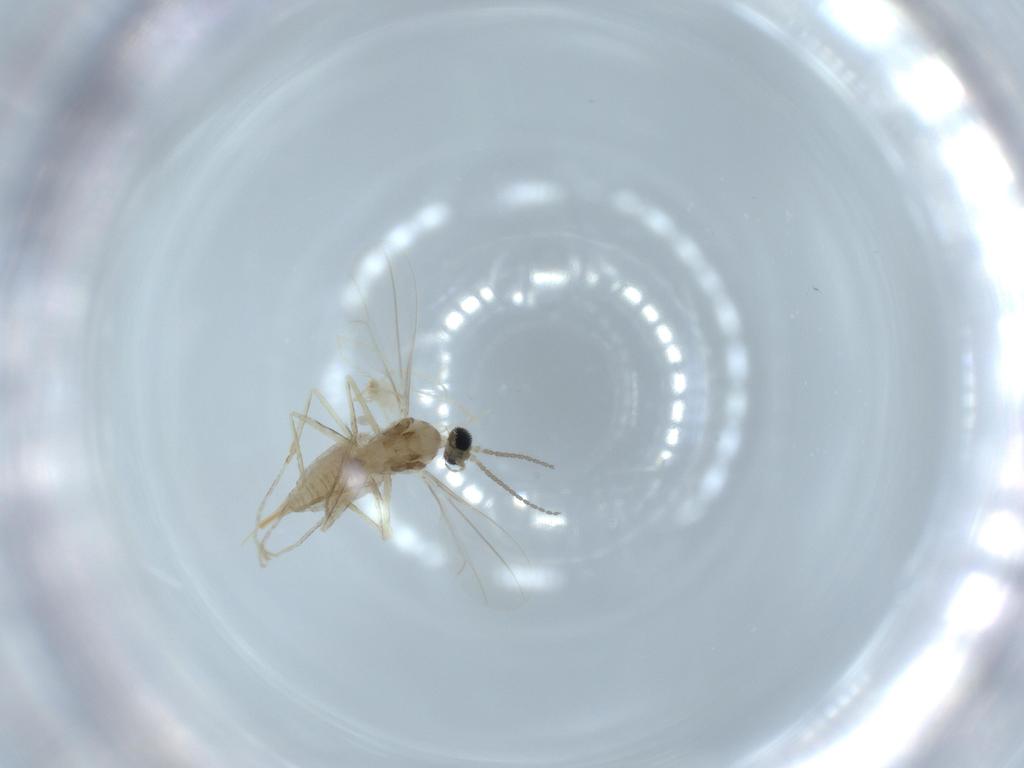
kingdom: Animalia
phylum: Arthropoda
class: Insecta
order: Diptera
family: Cecidomyiidae
